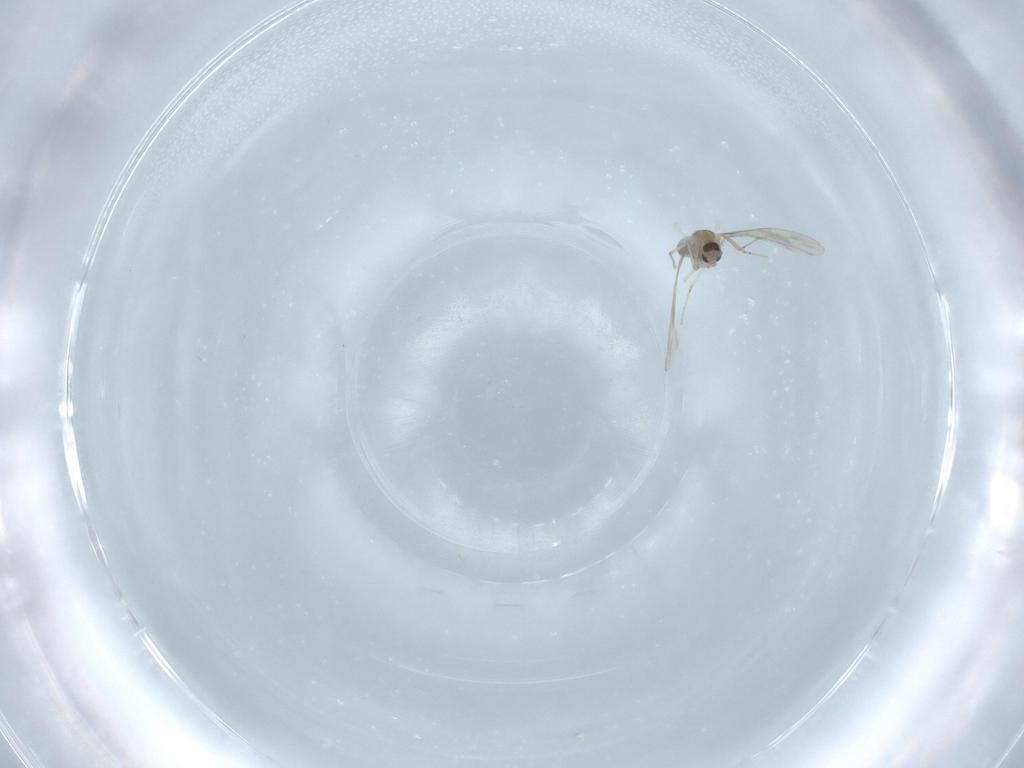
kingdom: Animalia
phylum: Arthropoda
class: Insecta
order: Diptera
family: Cecidomyiidae
